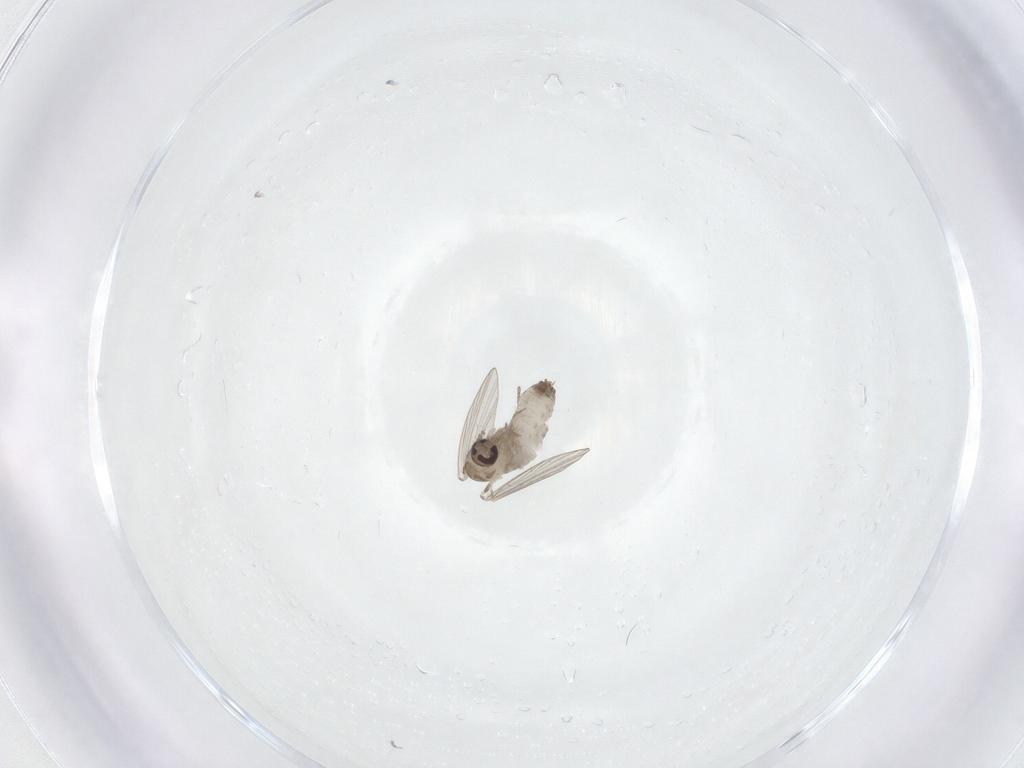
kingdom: Animalia
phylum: Arthropoda
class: Insecta
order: Diptera
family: Psychodidae
